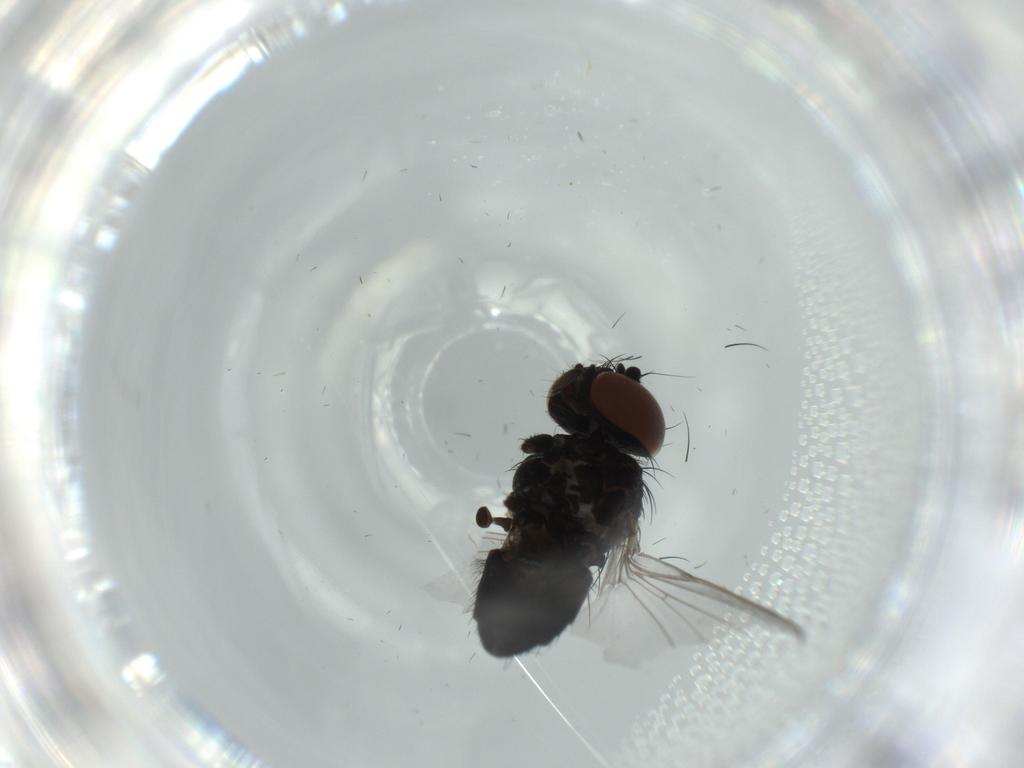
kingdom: Animalia
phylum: Arthropoda
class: Insecta
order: Diptera
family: Milichiidae
